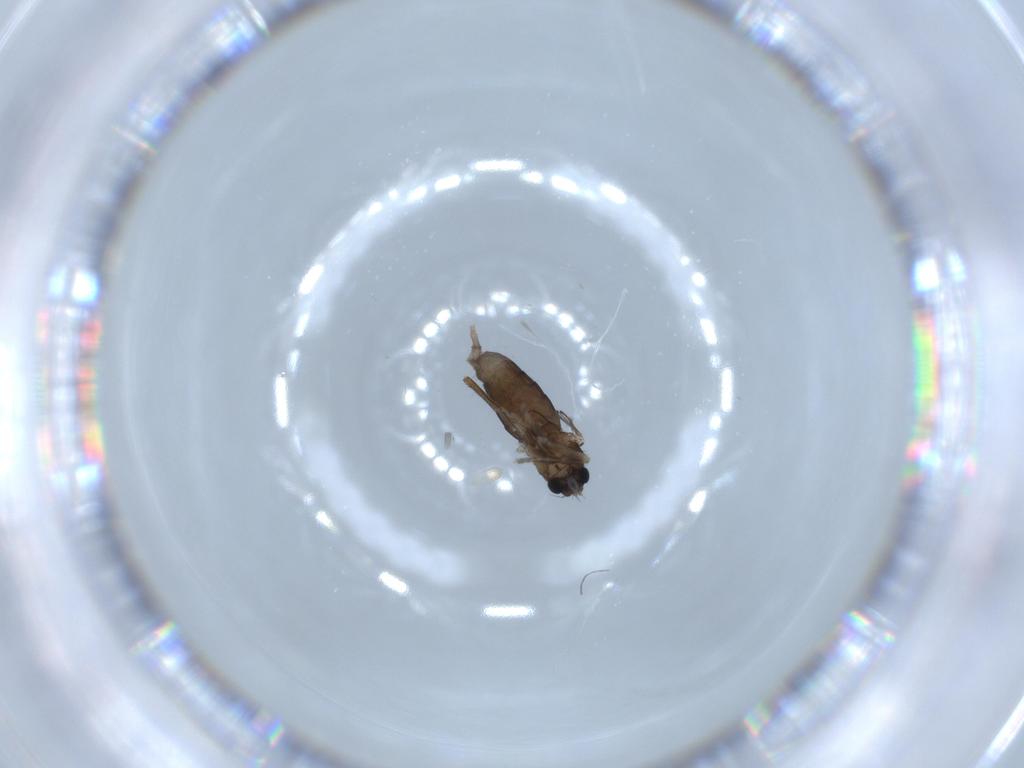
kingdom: Animalia
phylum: Arthropoda
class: Insecta
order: Diptera
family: Phoridae
